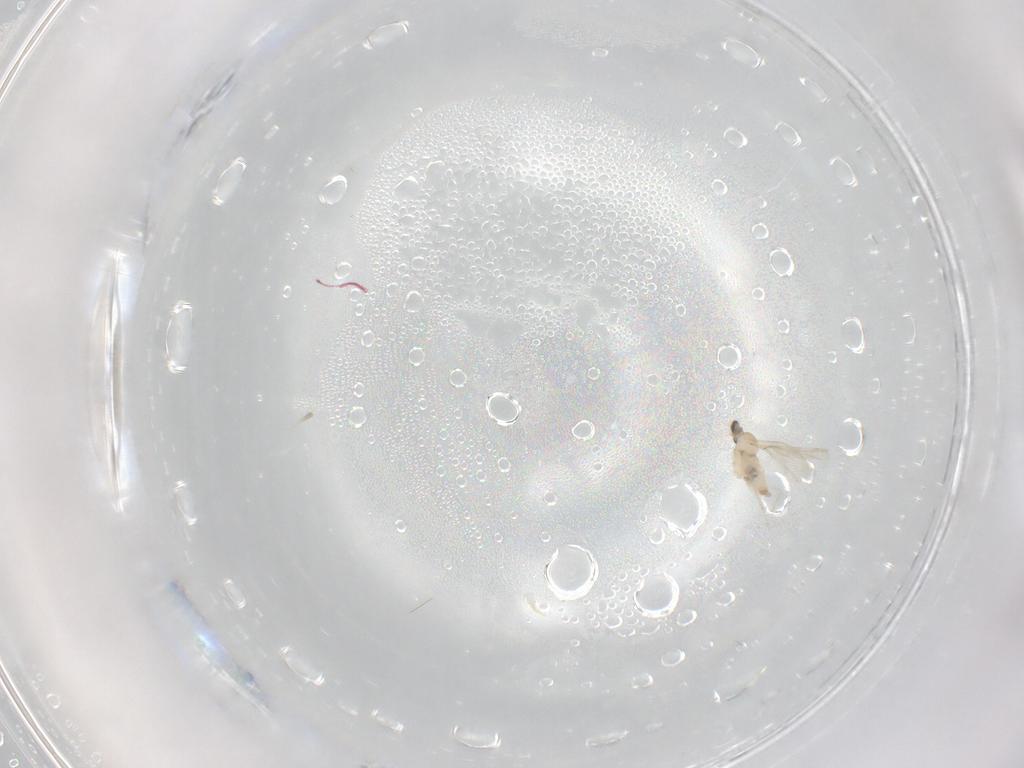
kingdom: Animalia
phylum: Arthropoda
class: Insecta
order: Diptera
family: Cecidomyiidae
